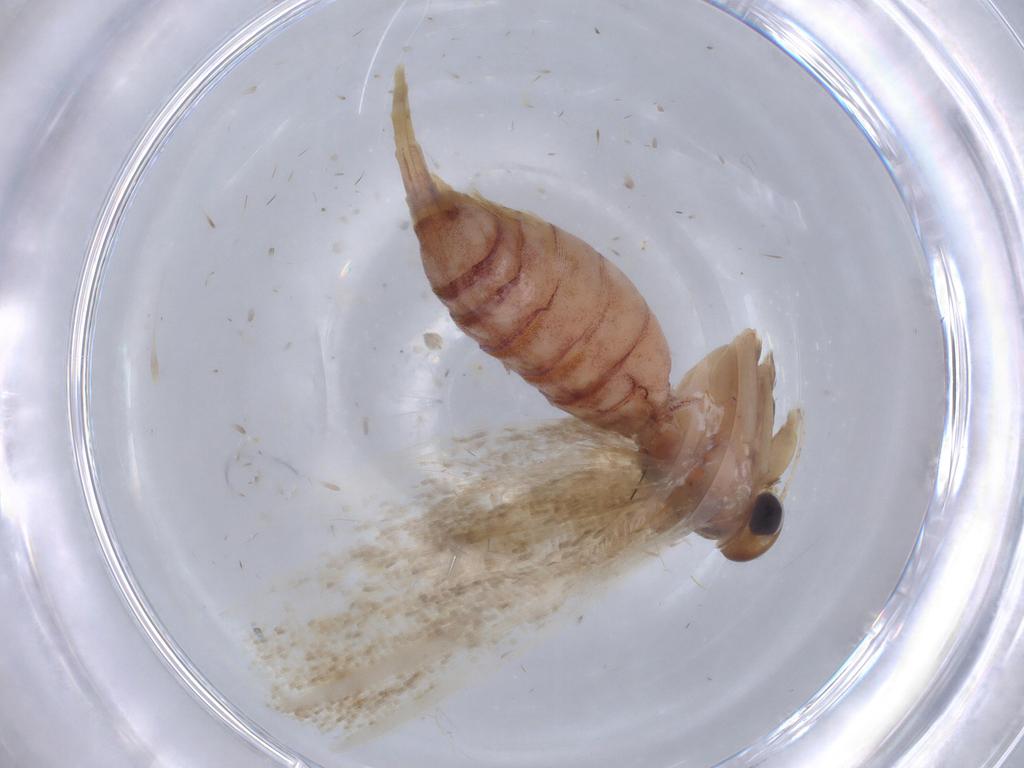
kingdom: Animalia
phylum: Arthropoda
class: Insecta
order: Lepidoptera
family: Blastobasidae
